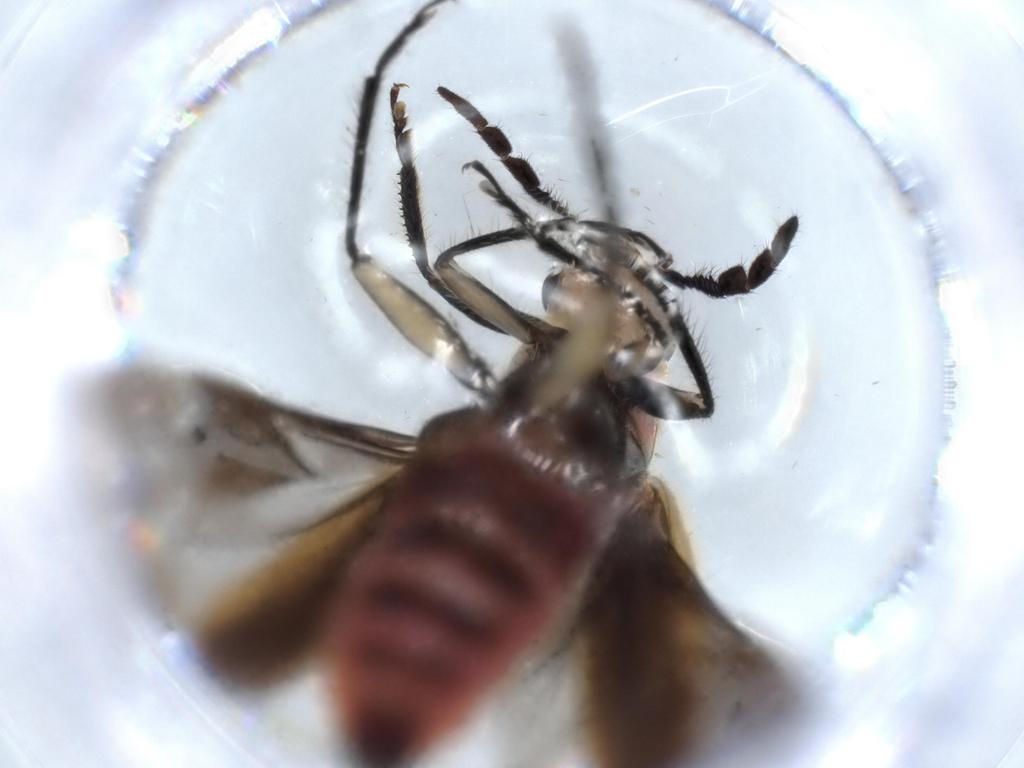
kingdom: Animalia
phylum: Arthropoda
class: Insecta
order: Coleoptera
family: Cleridae
